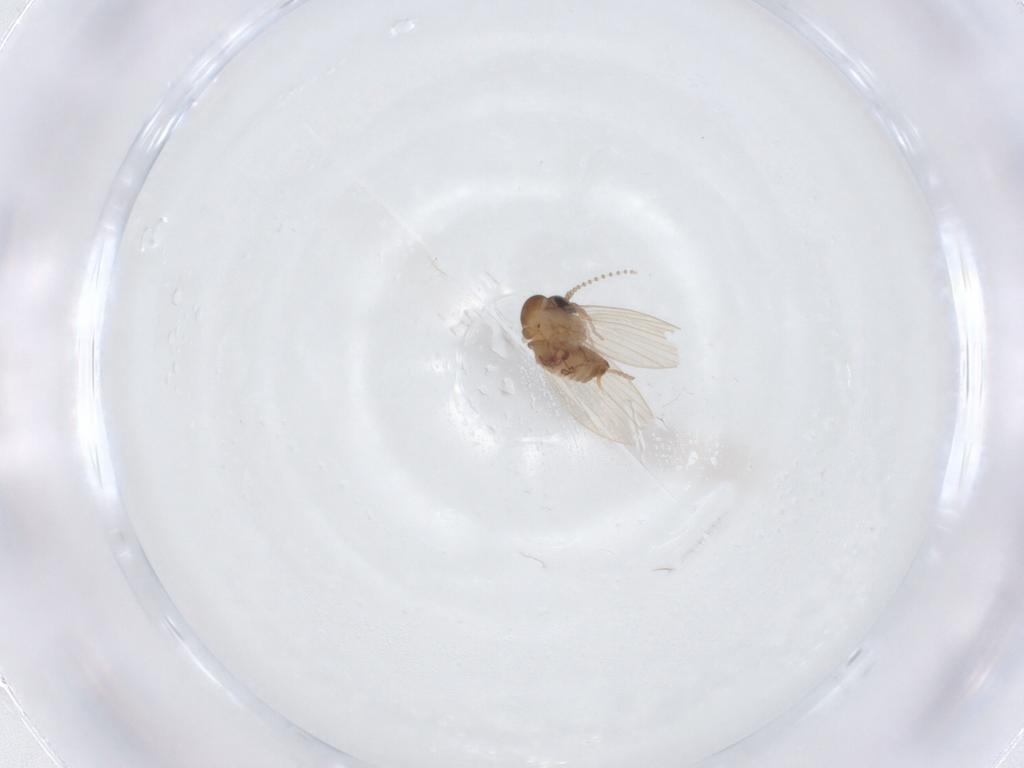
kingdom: Animalia
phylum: Arthropoda
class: Insecta
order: Diptera
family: Psychodidae
